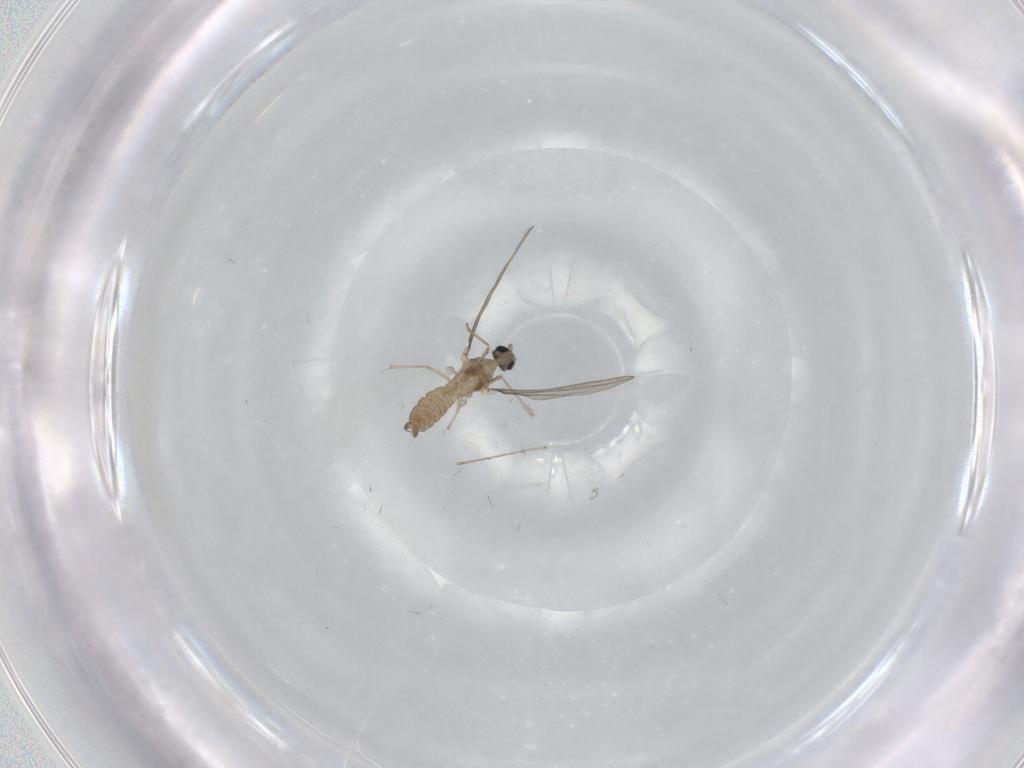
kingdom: Animalia
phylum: Arthropoda
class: Insecta
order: Diptera
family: Cecidomyiidae
